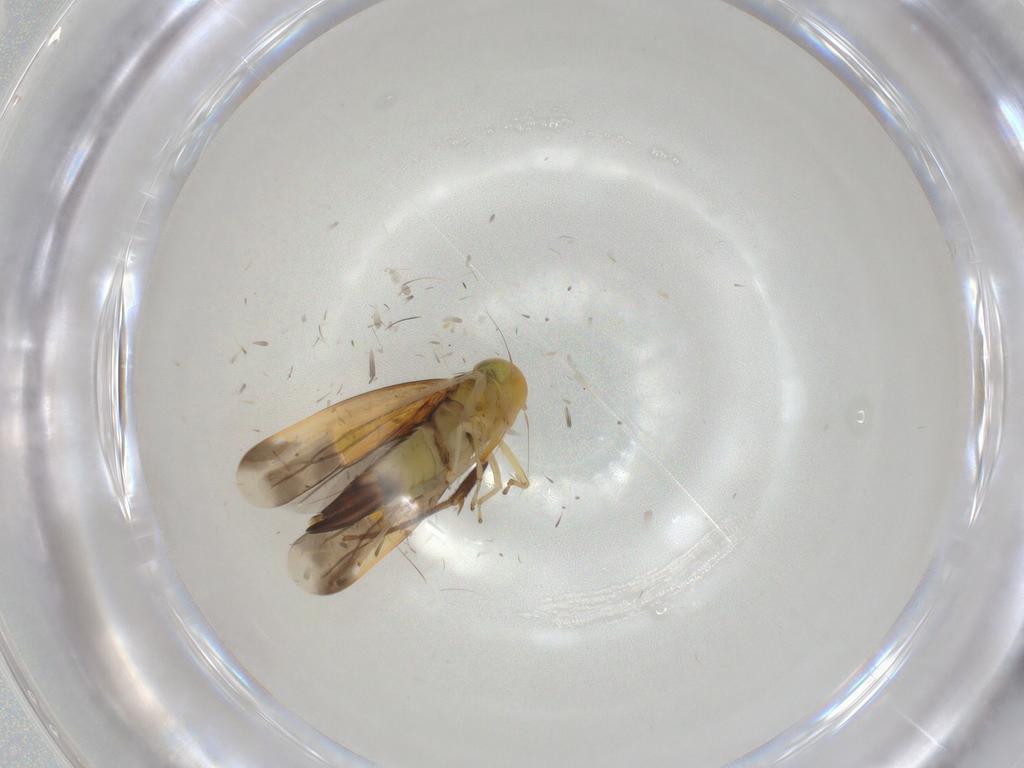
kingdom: Animalia
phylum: Arthropoda
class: Insecta
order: Hemiptera
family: Cicadellidae
